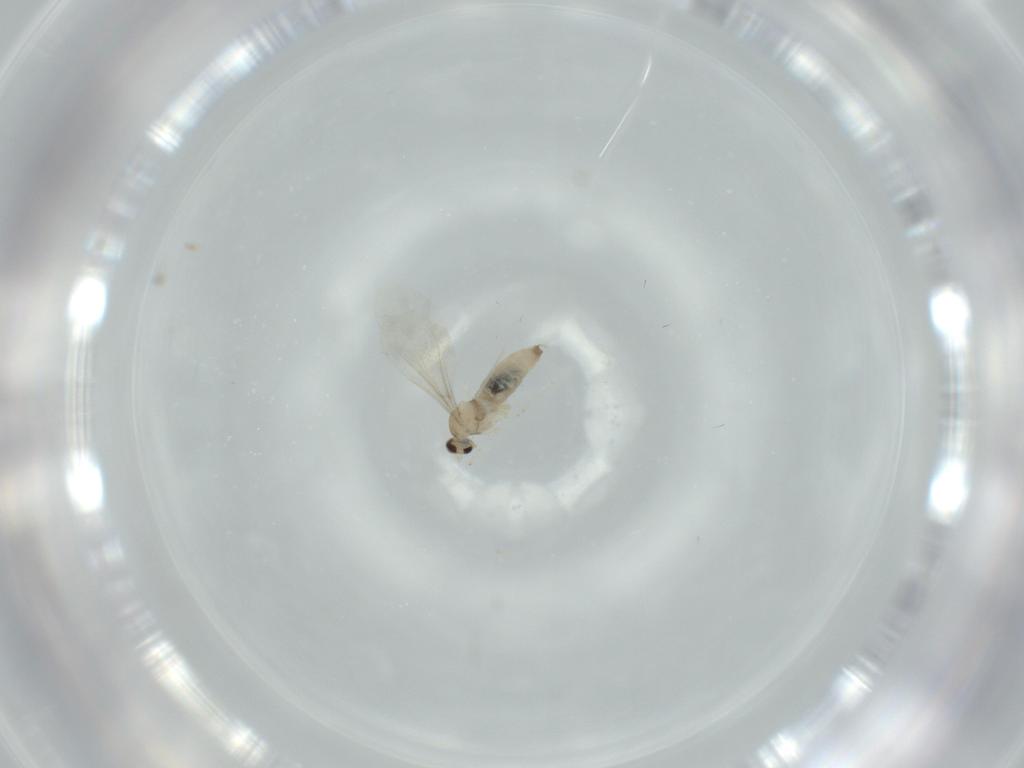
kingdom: Animalia
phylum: Arthropoda
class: Insecta
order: Diptera
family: Cecidomyiidae
